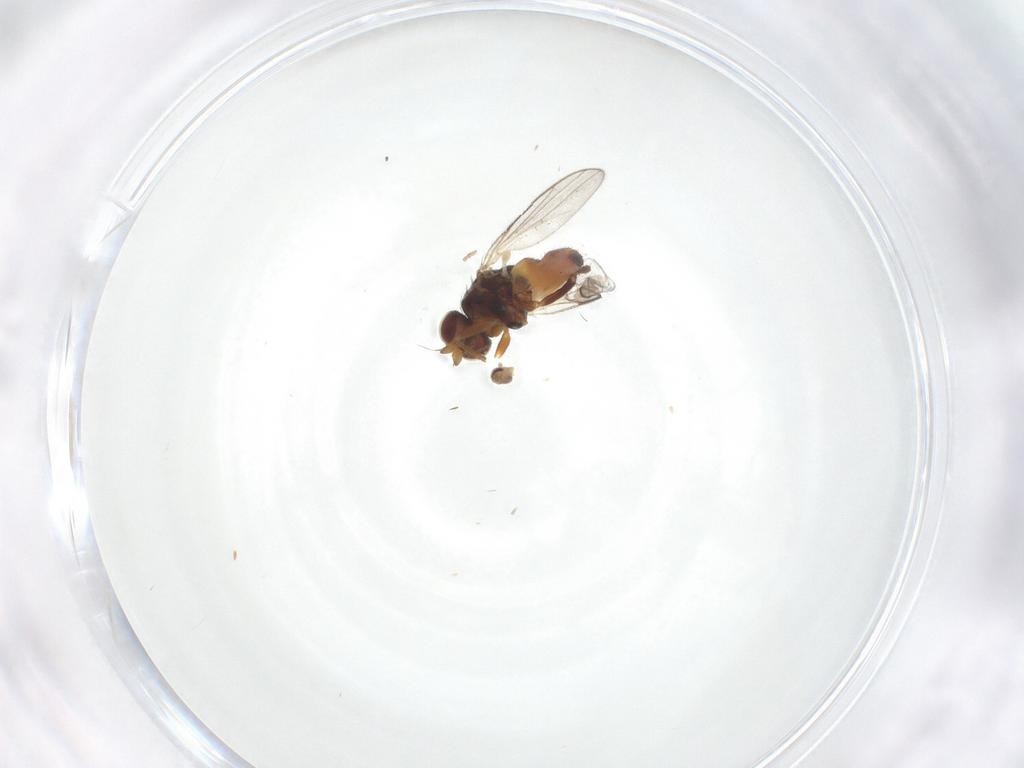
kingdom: Animalia
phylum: Arthropoda
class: Insecta
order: Diptera
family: Chloropidae
